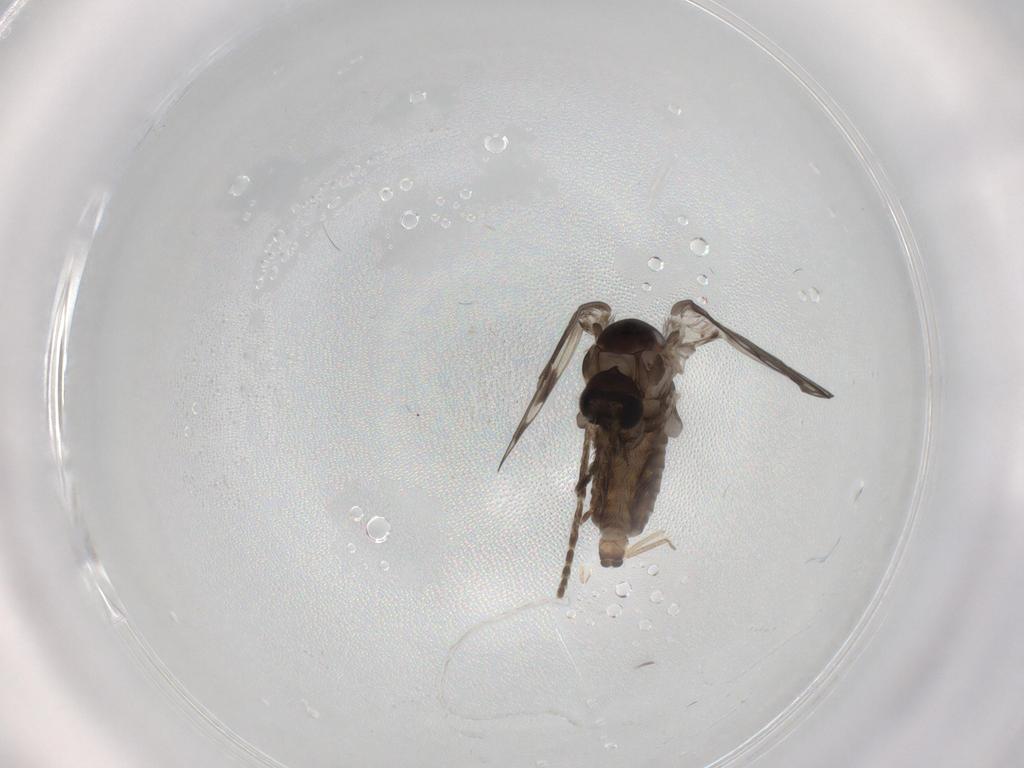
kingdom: Animalia
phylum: Arthropoda
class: Insecta
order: Diptera
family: Psychodidae
